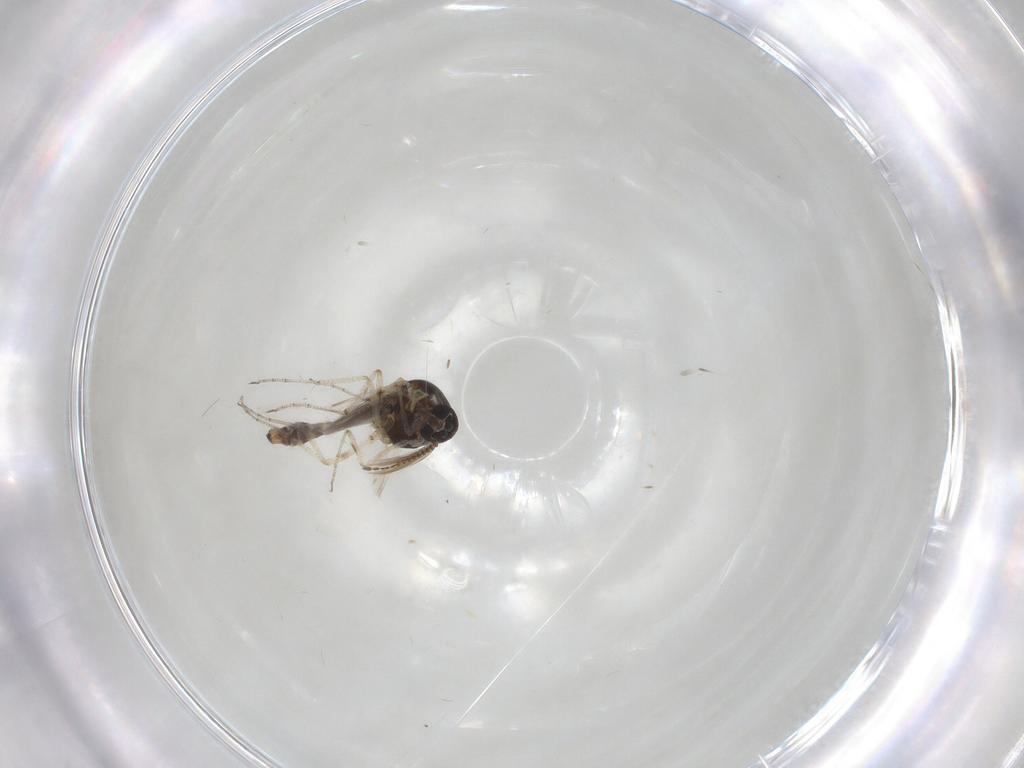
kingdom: Animalia
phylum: Arthropoda
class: Insecta
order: Diptera
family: Ceratopogonidae
